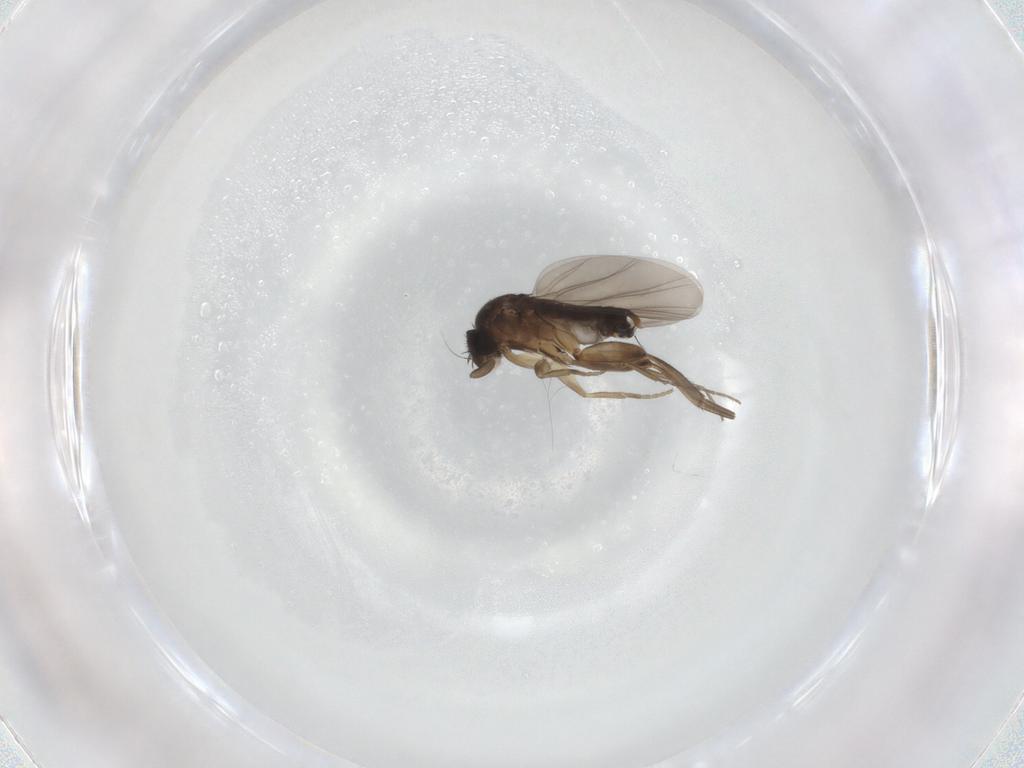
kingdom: Animalia
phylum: Arthropoda
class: Insecta
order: Diptera
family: Phoridae
